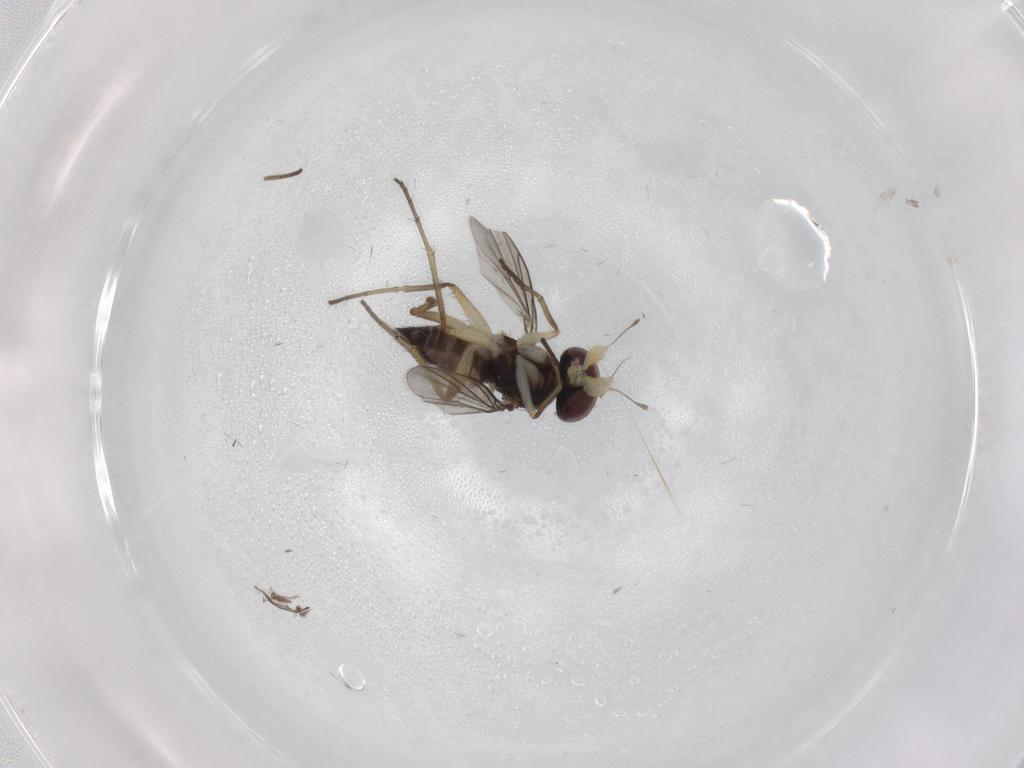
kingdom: Animalia
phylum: Arthropoda
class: Insecta
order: Diptera
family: Dolichopodidae
